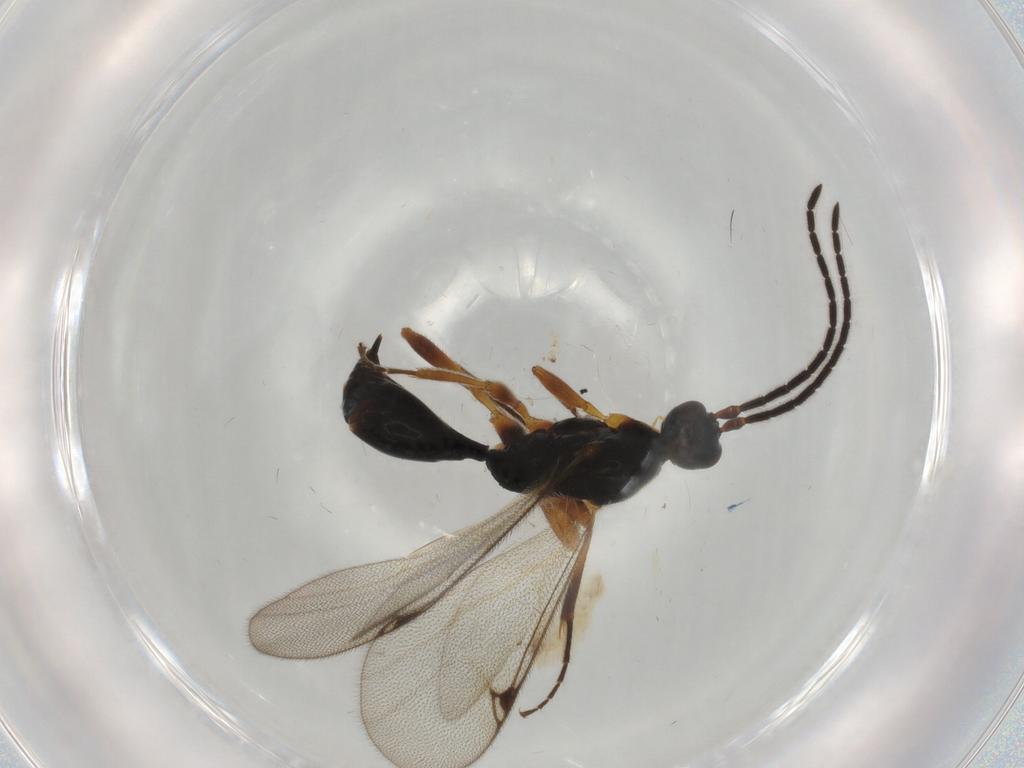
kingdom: Animalia
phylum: Arthropoda
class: Insecta
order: Hymenoptera
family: Proctotrupidae
